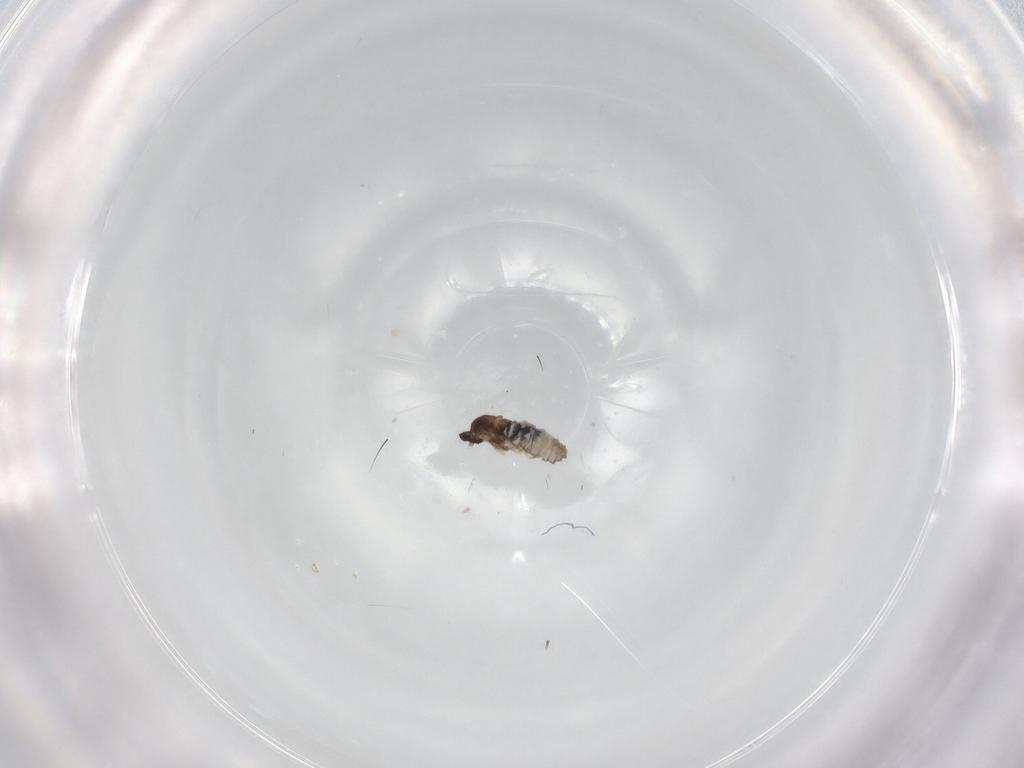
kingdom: Animalia
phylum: Arthropoda
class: Insecta
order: Diptera
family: Cecidomyiidae
